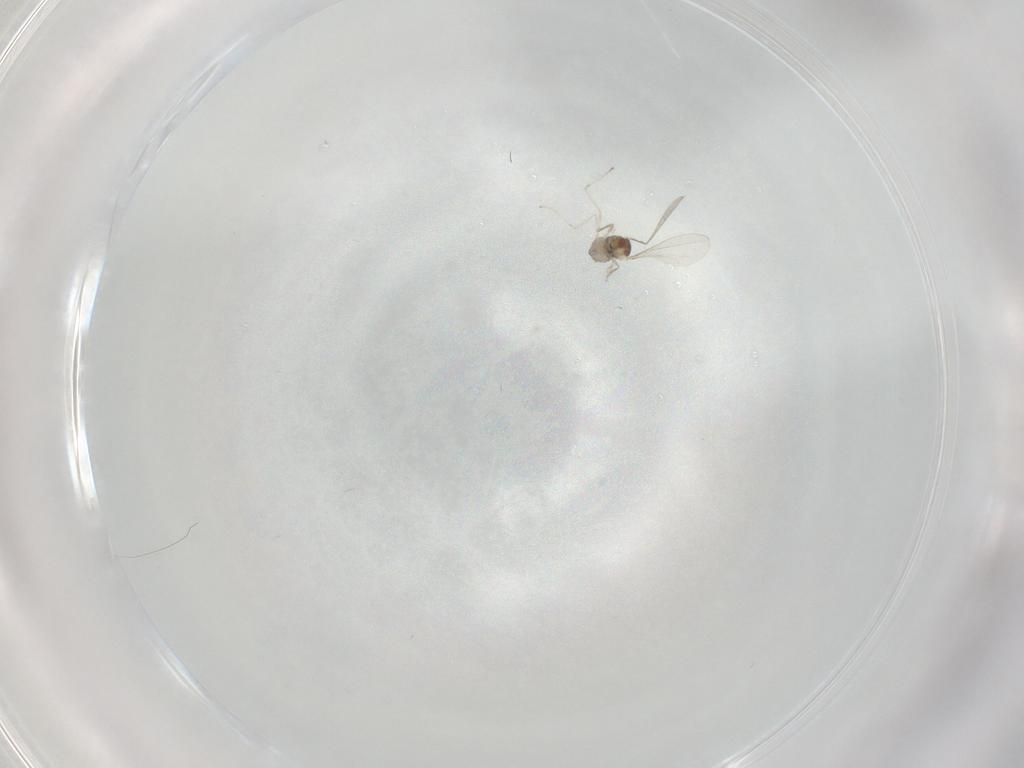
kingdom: Animalia
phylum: Arthropoda
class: Insecta
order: Diptera
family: Cecidomyiidae
